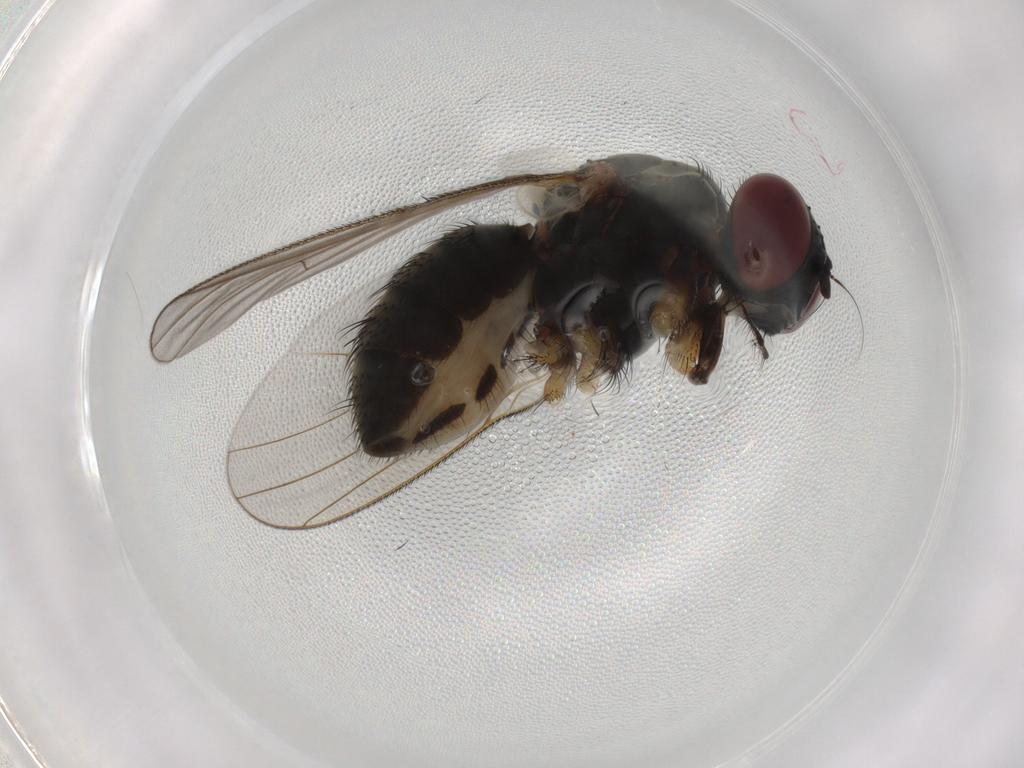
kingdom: Animalia
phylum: Arthropoda
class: Insecta
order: Diptera
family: Muscidae
